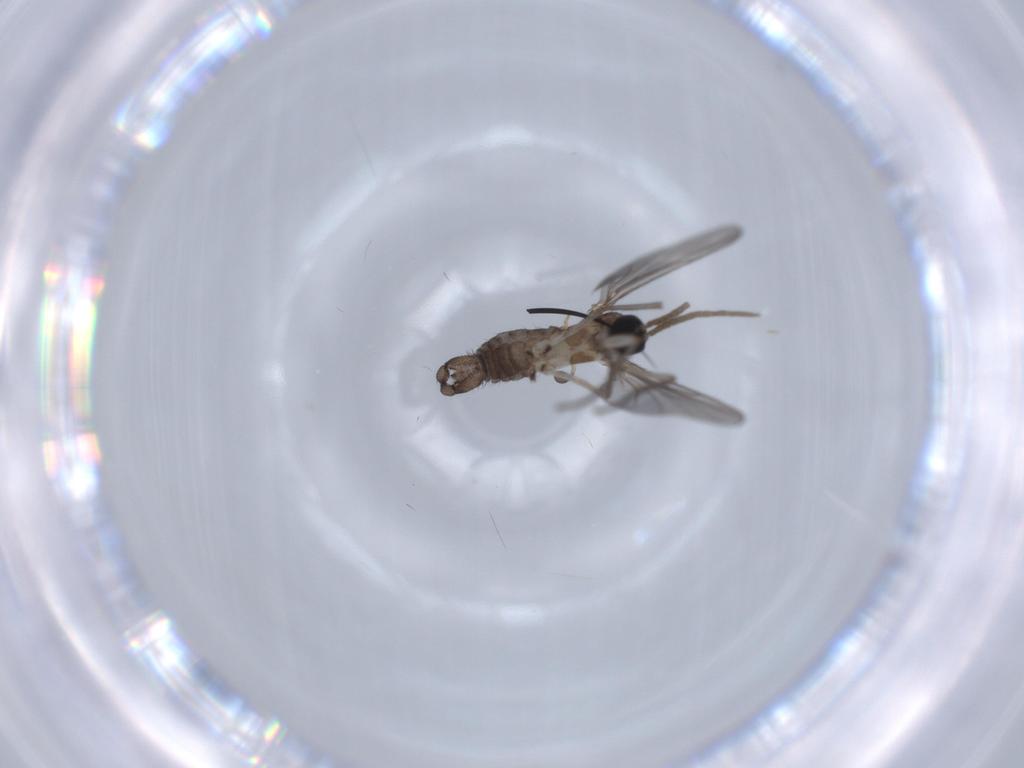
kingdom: Animalia
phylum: Arthropoda
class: Insecta
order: Diptera
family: Sciaridae
